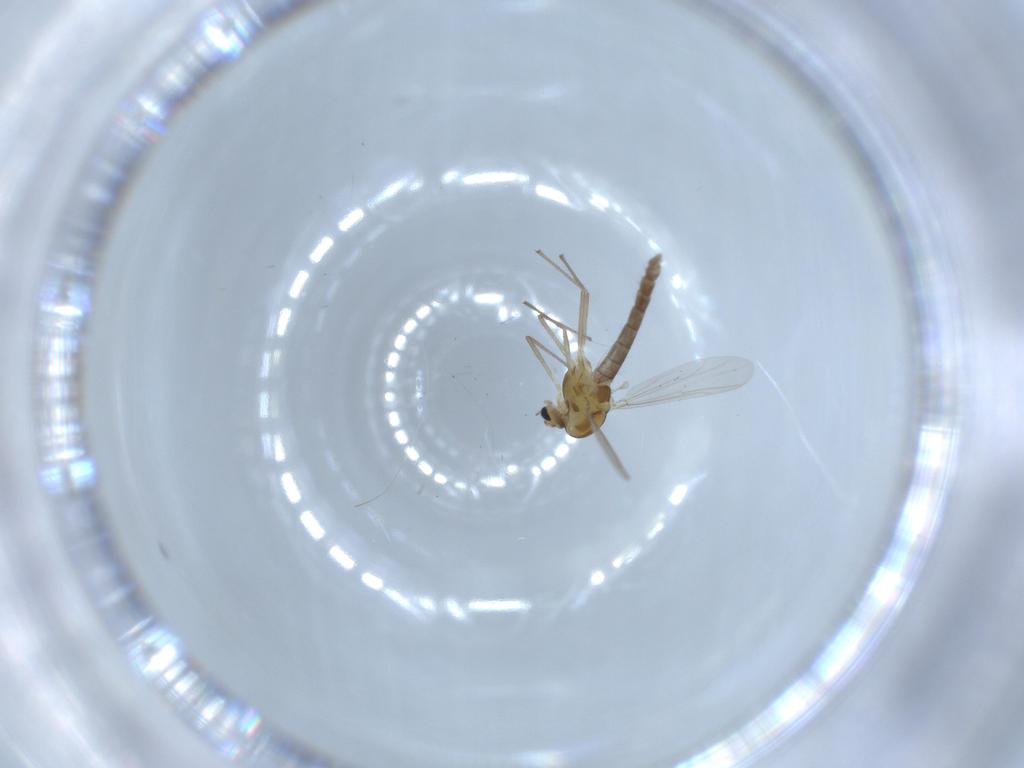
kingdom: Animalia
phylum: Arthropoda
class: Insecta
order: Diptera
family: Chironomidae
